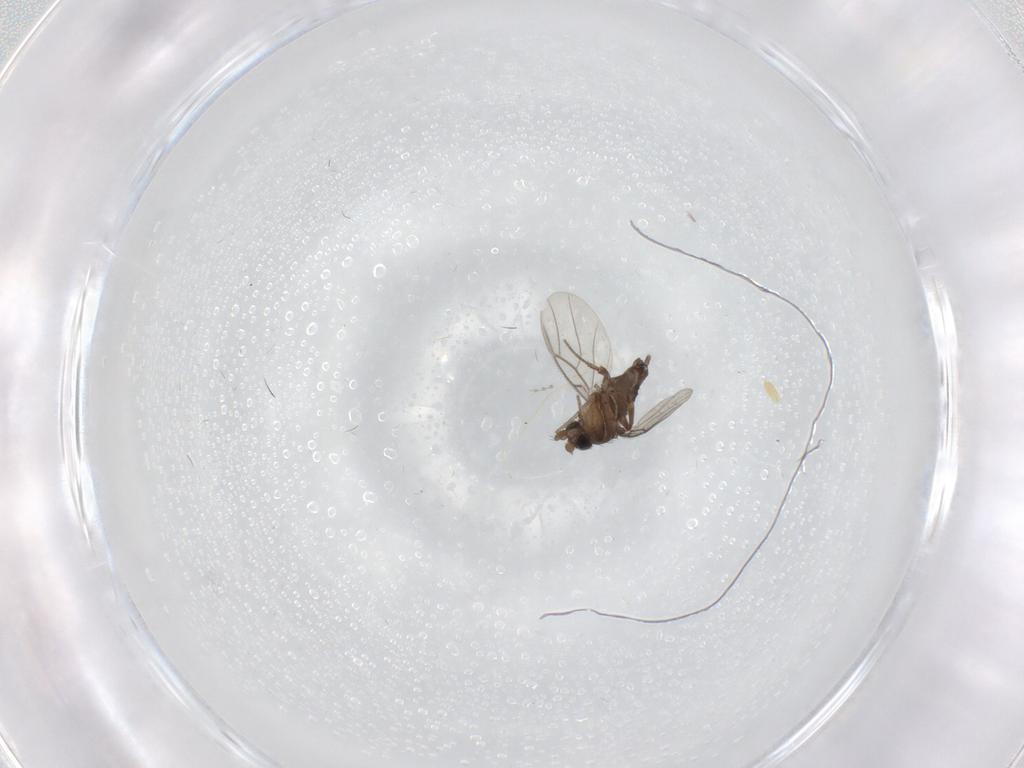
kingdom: Animalia
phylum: Arthropoda
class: Insecta
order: Diptera
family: Phoridae
